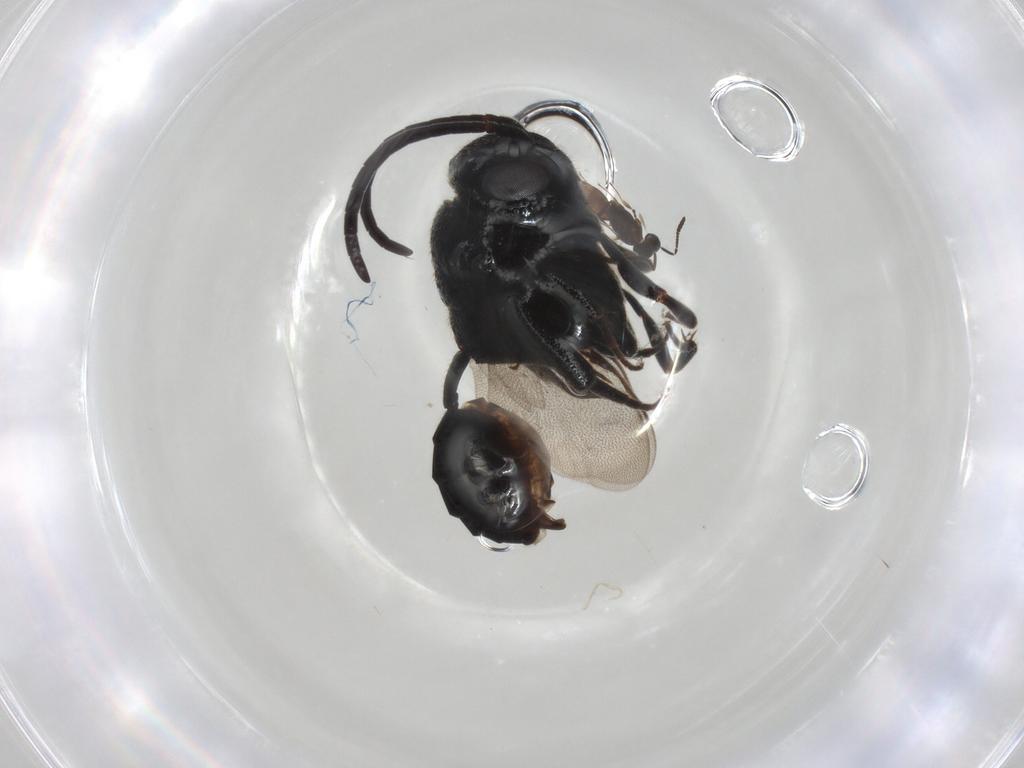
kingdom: Animalia
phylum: Arthropoda
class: Insecta
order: Hymenoptera
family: Scelionidae
